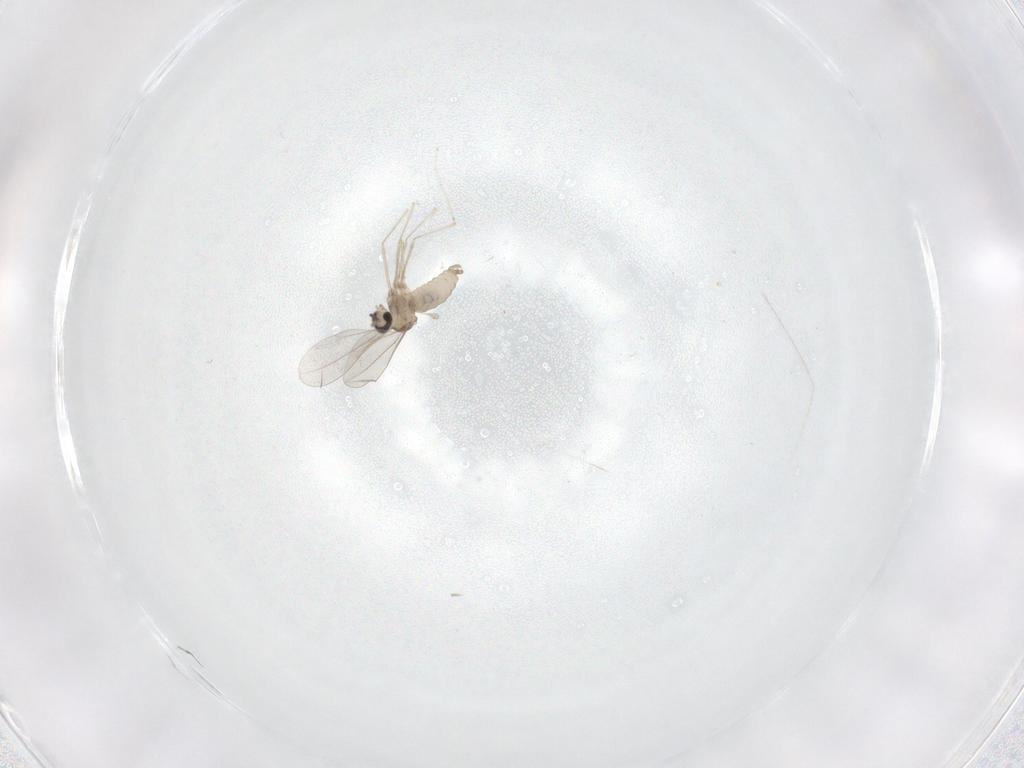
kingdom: Animalia
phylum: Arthropoda
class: Insecta
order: Diptera
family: Cecidomyiidae
